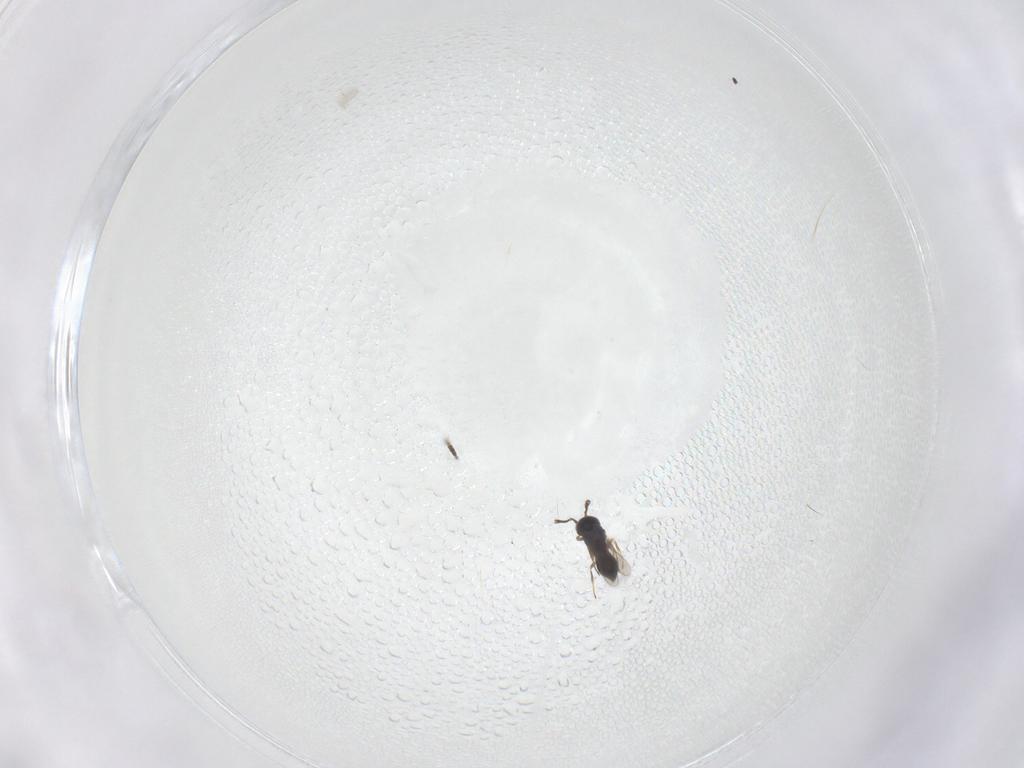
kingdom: Animalia
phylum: Arthropoda
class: Insecta
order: Hymenoptera
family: Scelionidae
